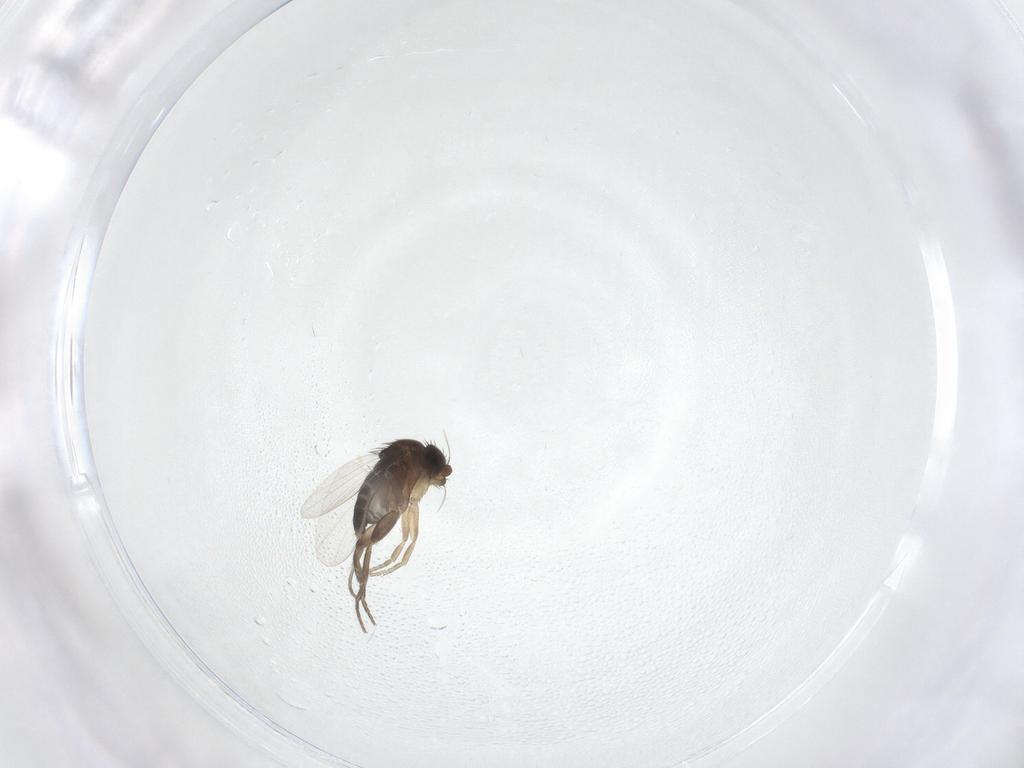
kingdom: Animalia
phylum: Arthropoda
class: Insecta
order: Diptera
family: Phoridae
